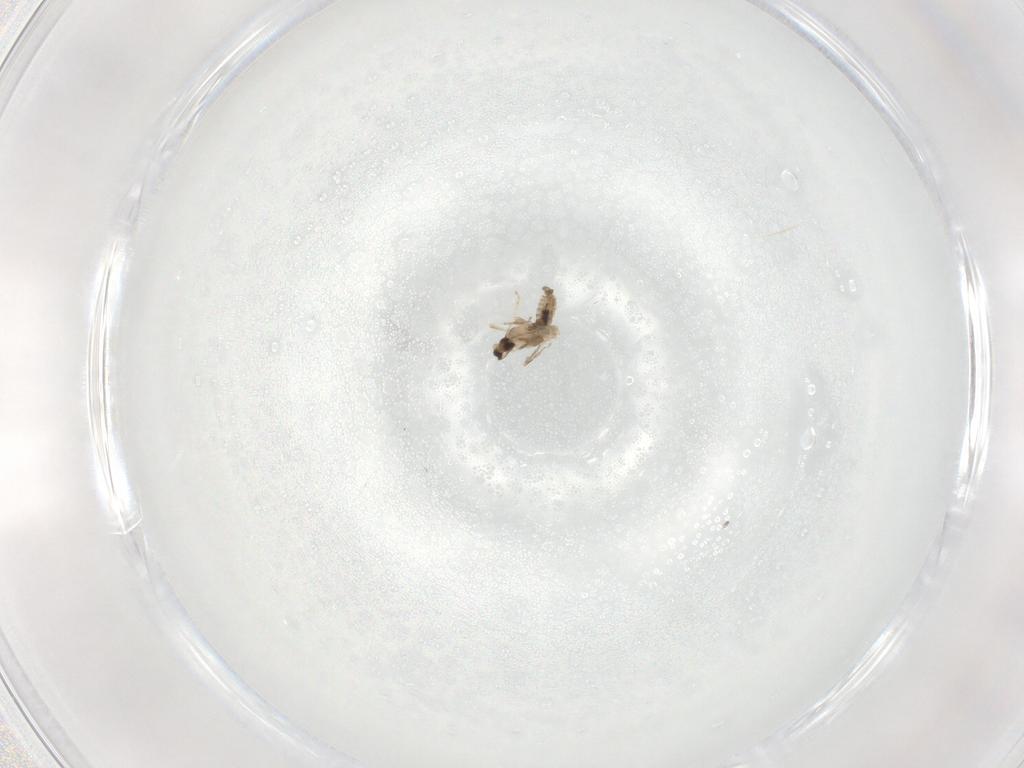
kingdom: Animalia
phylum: Arthropoda
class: Insecta
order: Diptera
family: Cecidomyiidae
